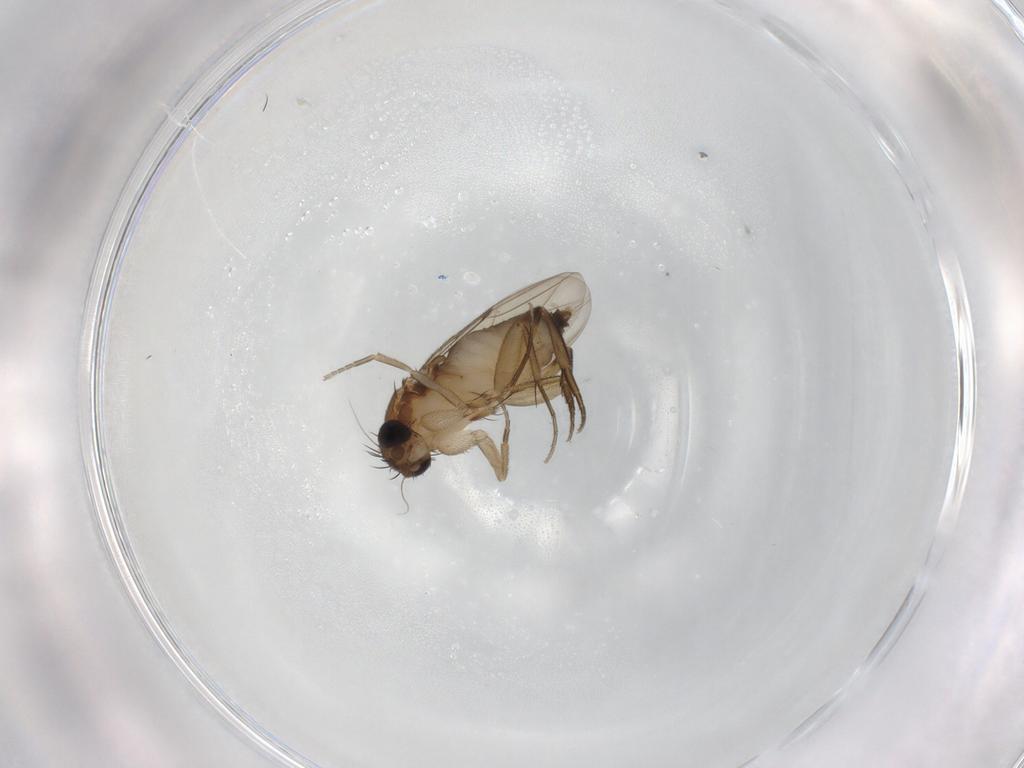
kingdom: Animalia
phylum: Arthropoda
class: Insecta
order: Diptera
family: Phoridae
